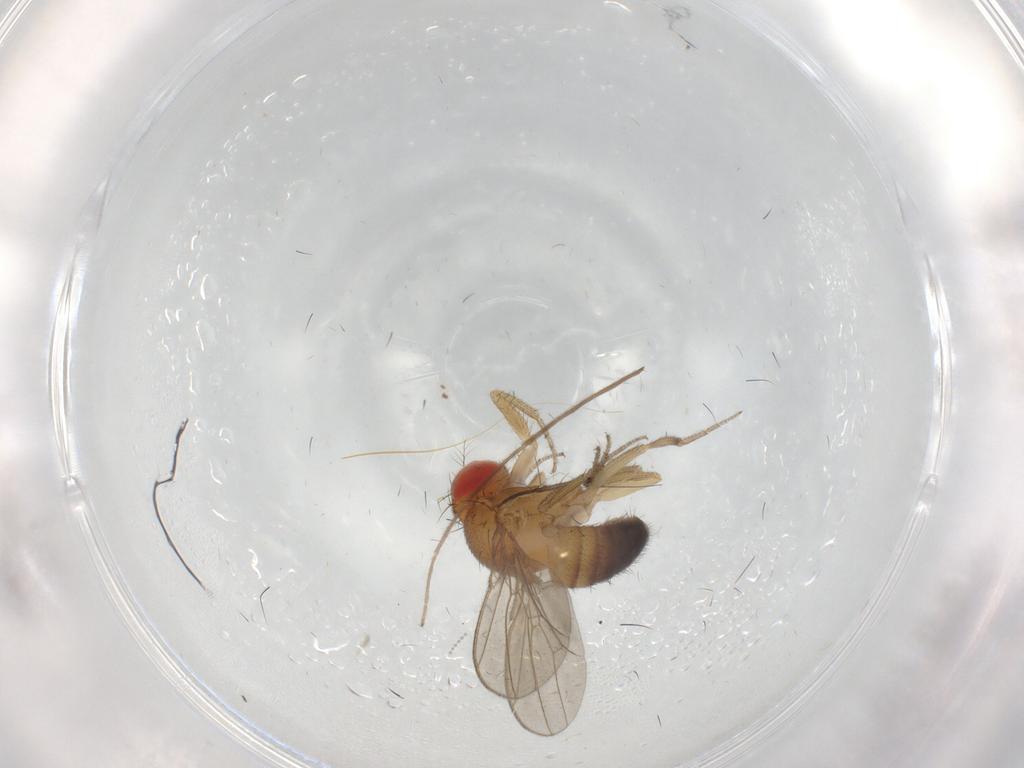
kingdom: Animalia
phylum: Arthropoda
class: Insecta
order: Diptera
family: Drosophilidae
